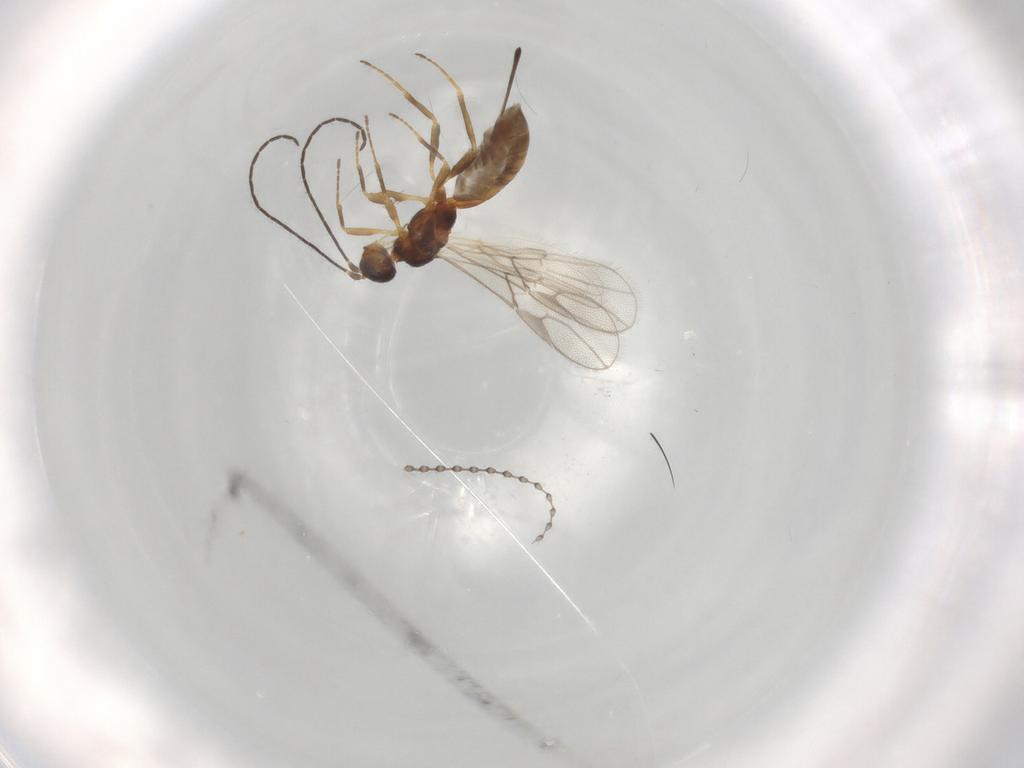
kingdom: Animalia
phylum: Arthropoda
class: Insecta
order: Hymenoptera
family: Braconidae
